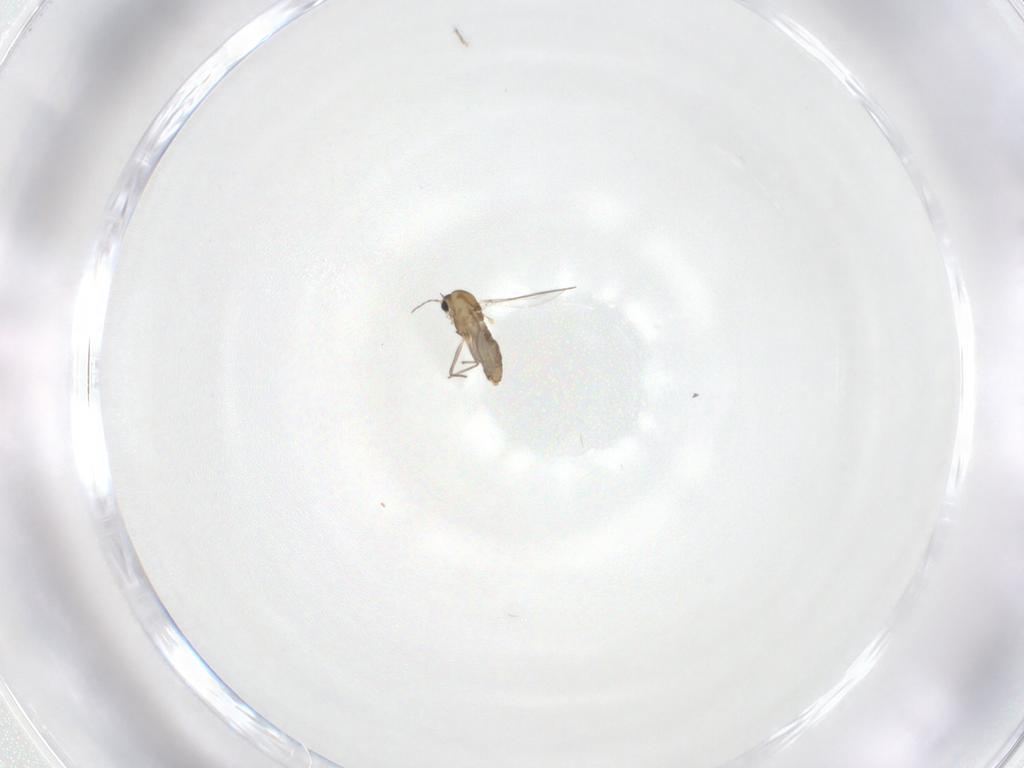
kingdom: Animalia
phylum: Arthropoda
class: Insecta
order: Diptera
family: Chironomidae
